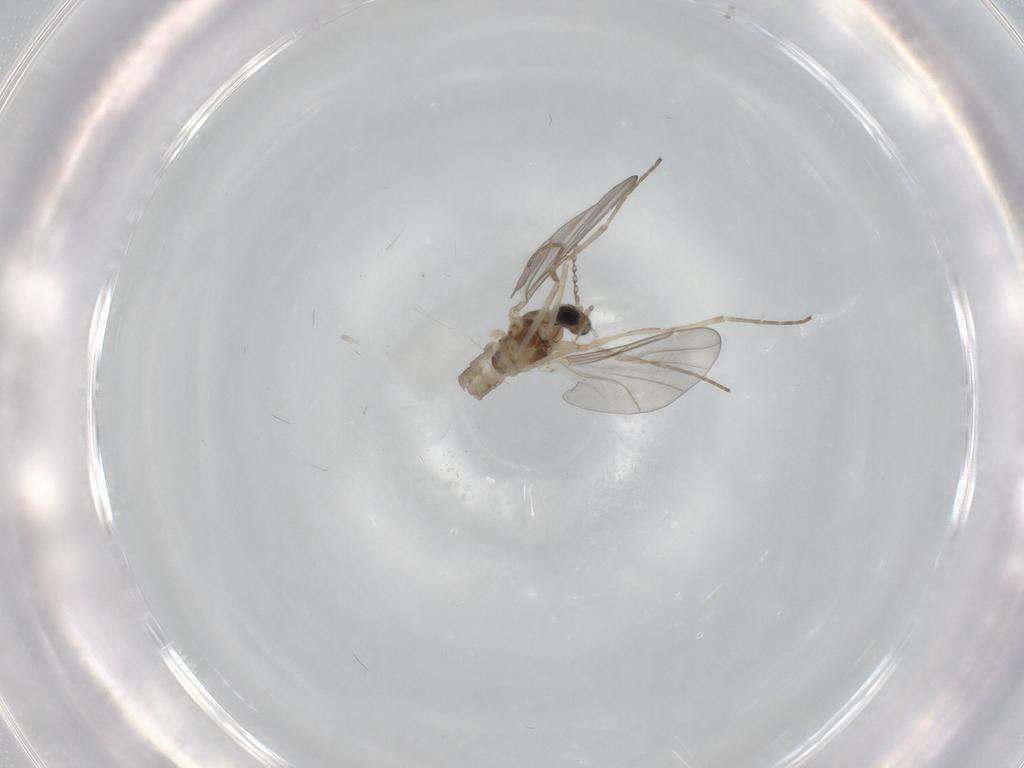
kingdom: Animalia
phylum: Arthropoda
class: Insecta
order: Diptera
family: Cecidomyiidae
